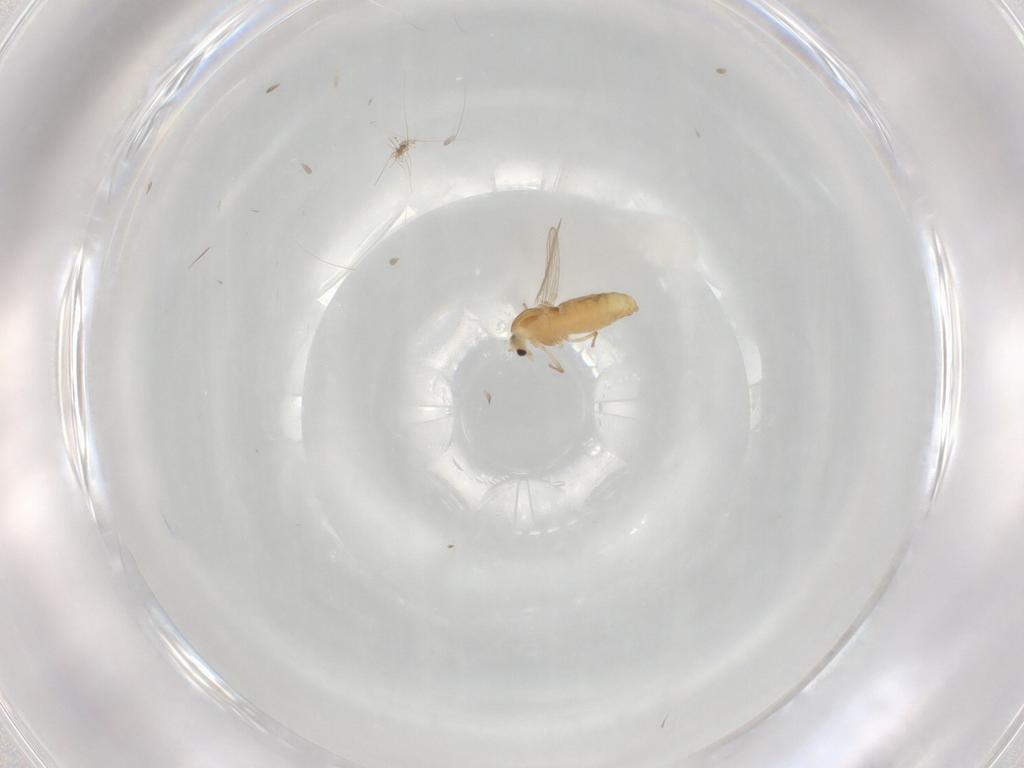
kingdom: Animalia
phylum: Arthropoda
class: Insecta
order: Diptera
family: Chironomidae
